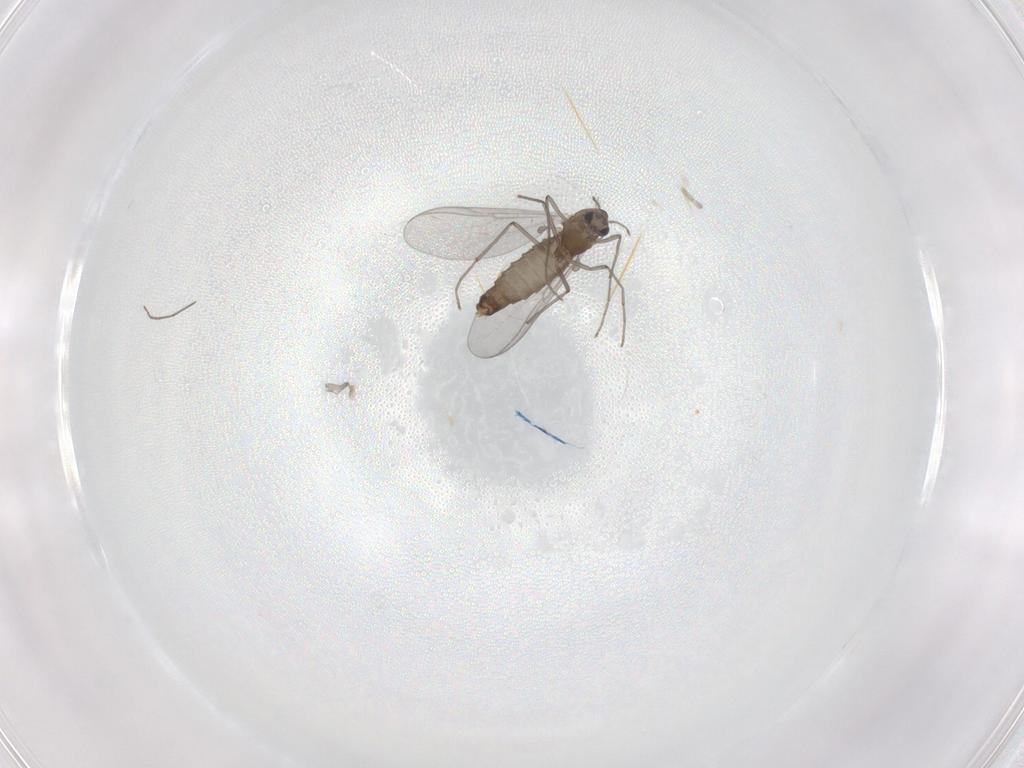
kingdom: Animalia
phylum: Arthropoda
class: Insecta
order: Diptera
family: Chironomidae
